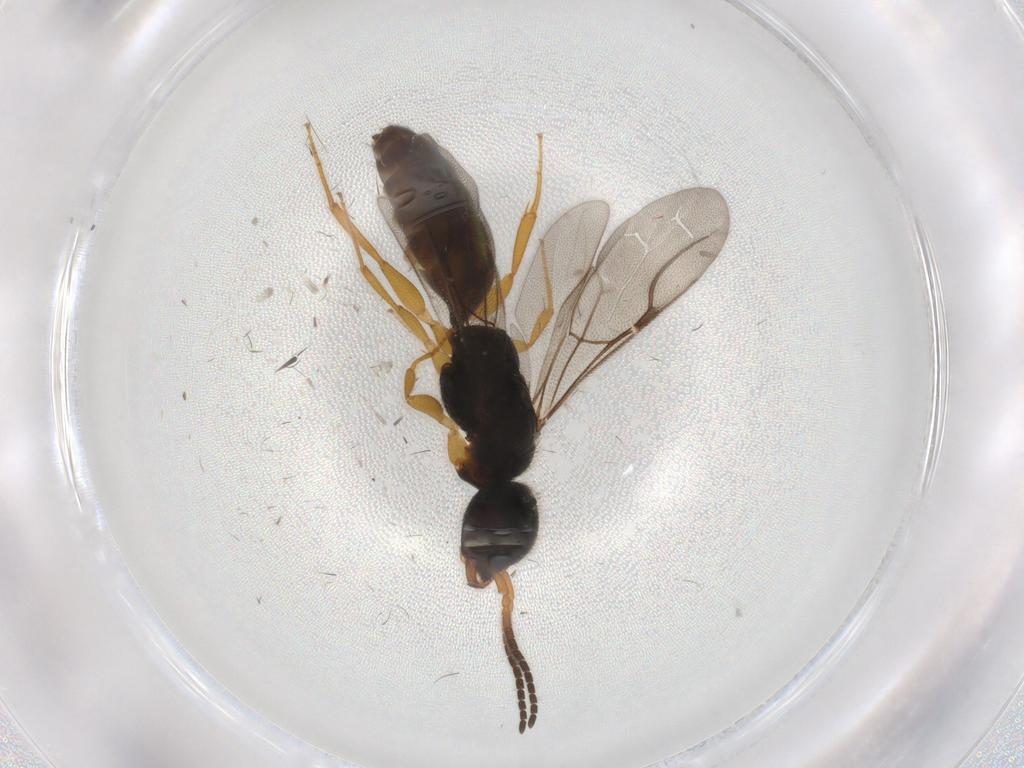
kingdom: Animalia
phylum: Arthropoda
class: Insecta
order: Hymenoptera
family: Bethylidae
